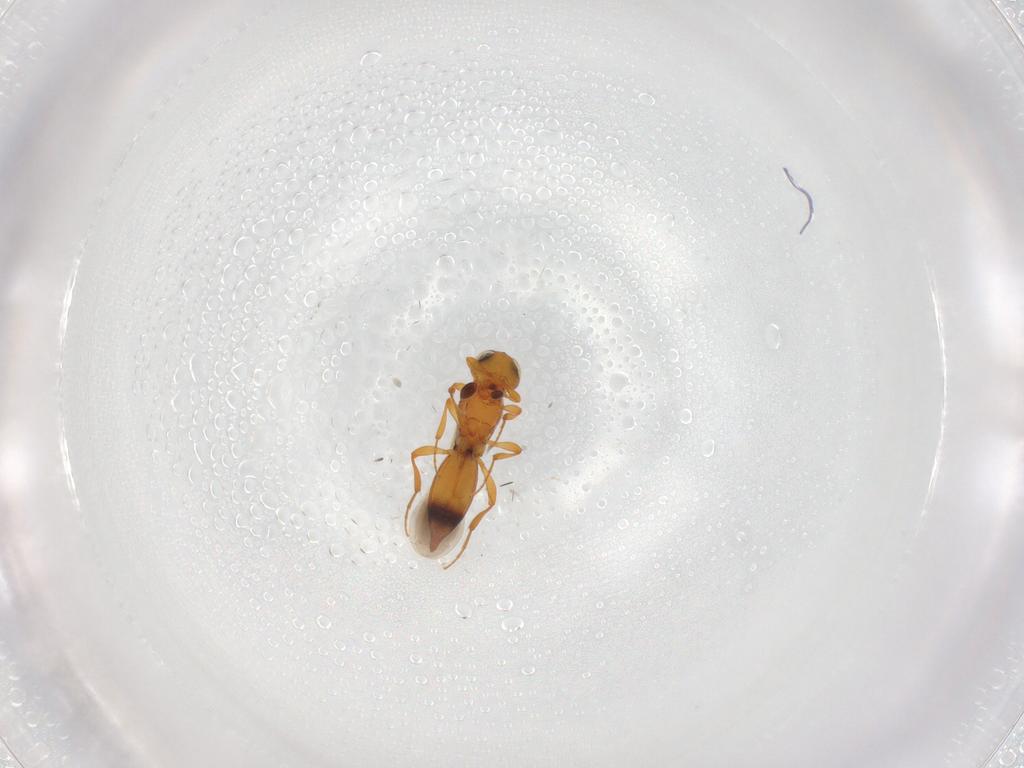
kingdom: Animalia
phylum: Arthropoda
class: Insecta
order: Hymenoptera
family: Platygastridae
